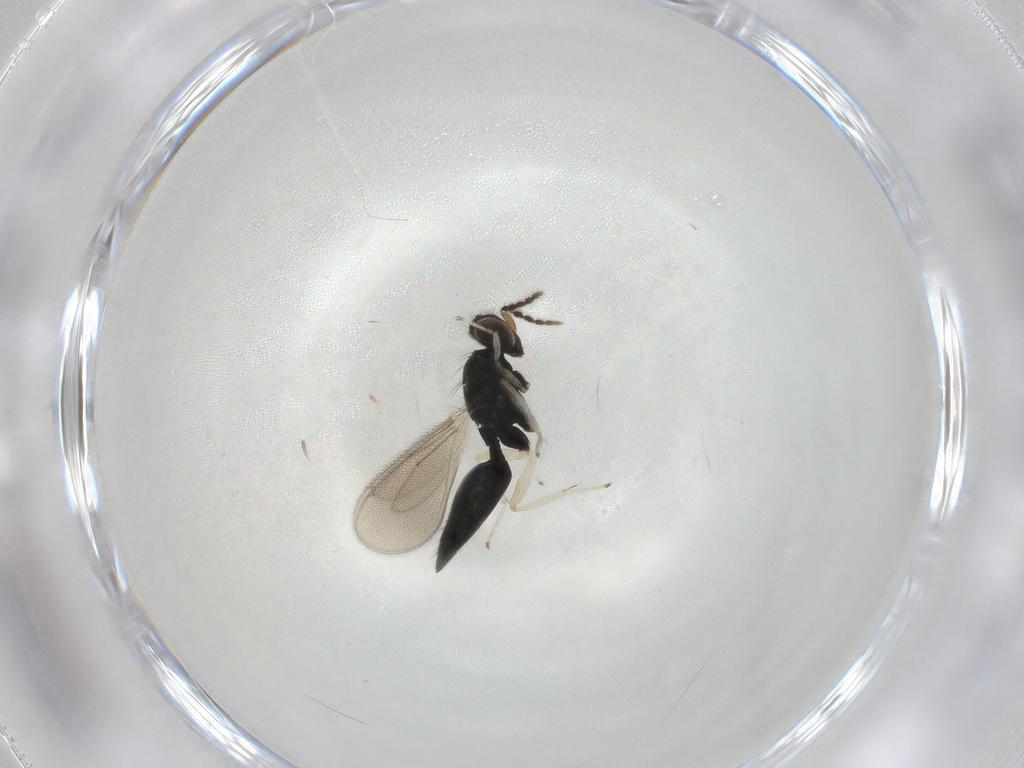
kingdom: Animalia
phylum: Arthropoda
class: Insecta
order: Hymenoptera
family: Eulophidae
